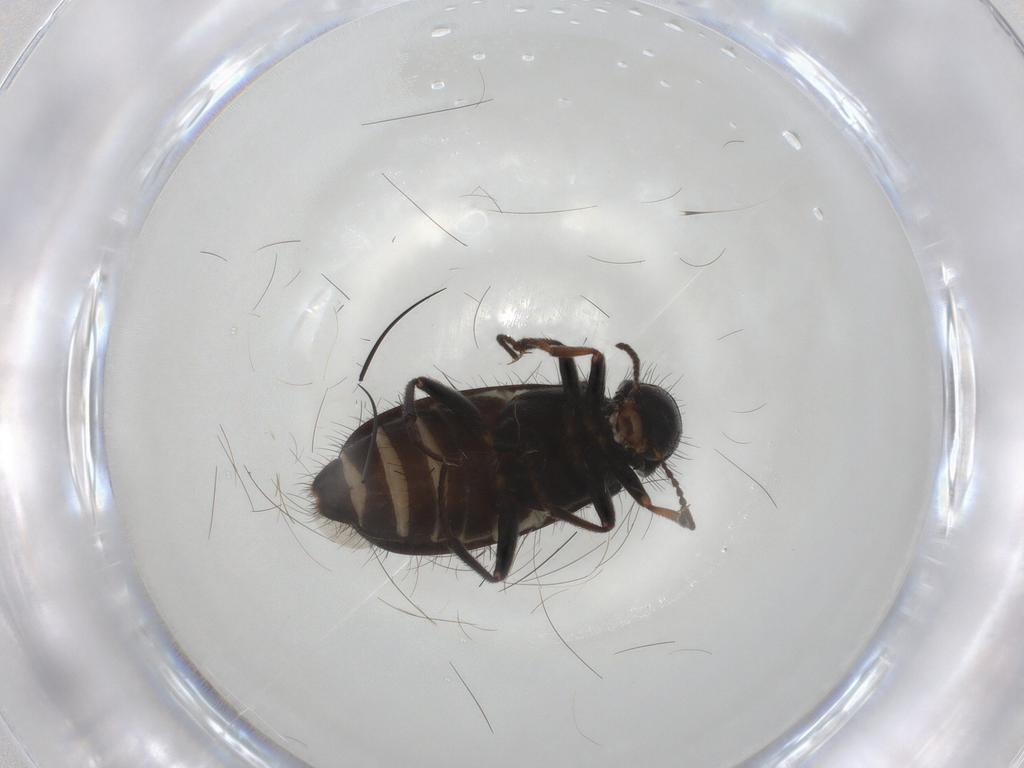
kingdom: Animalia
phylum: Arthropoda
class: Insecta
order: Coleoptera
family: Melyridae
